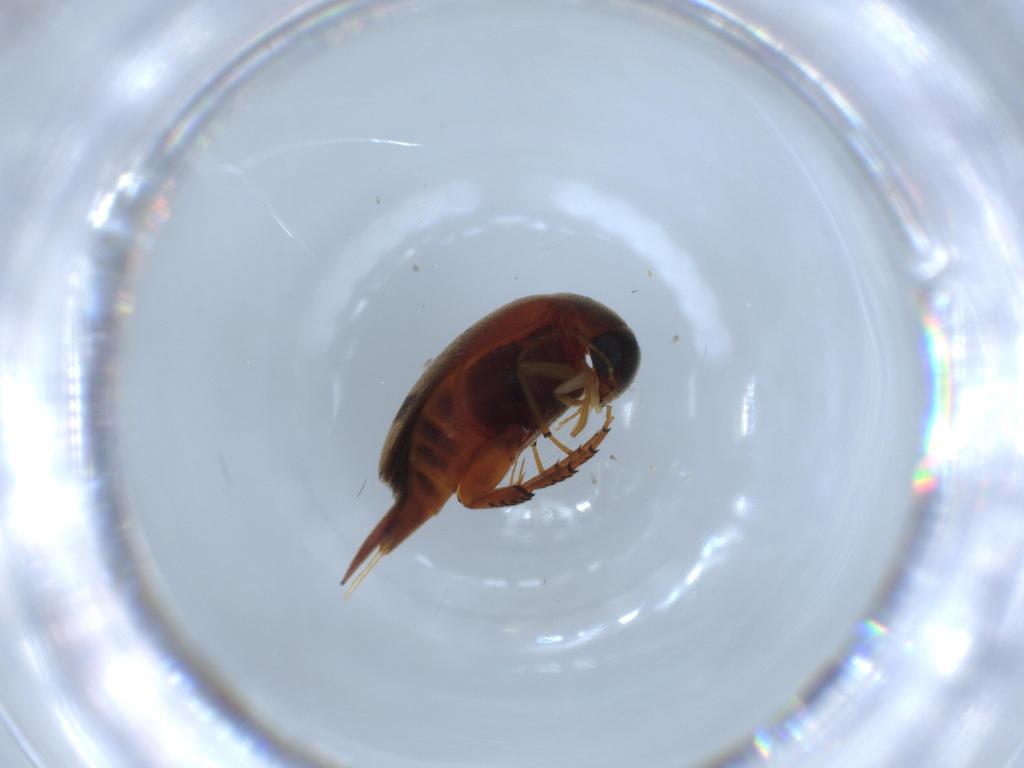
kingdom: Animalia
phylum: Arthropoda
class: Insecta
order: Coleoptera
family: Mordellidae
